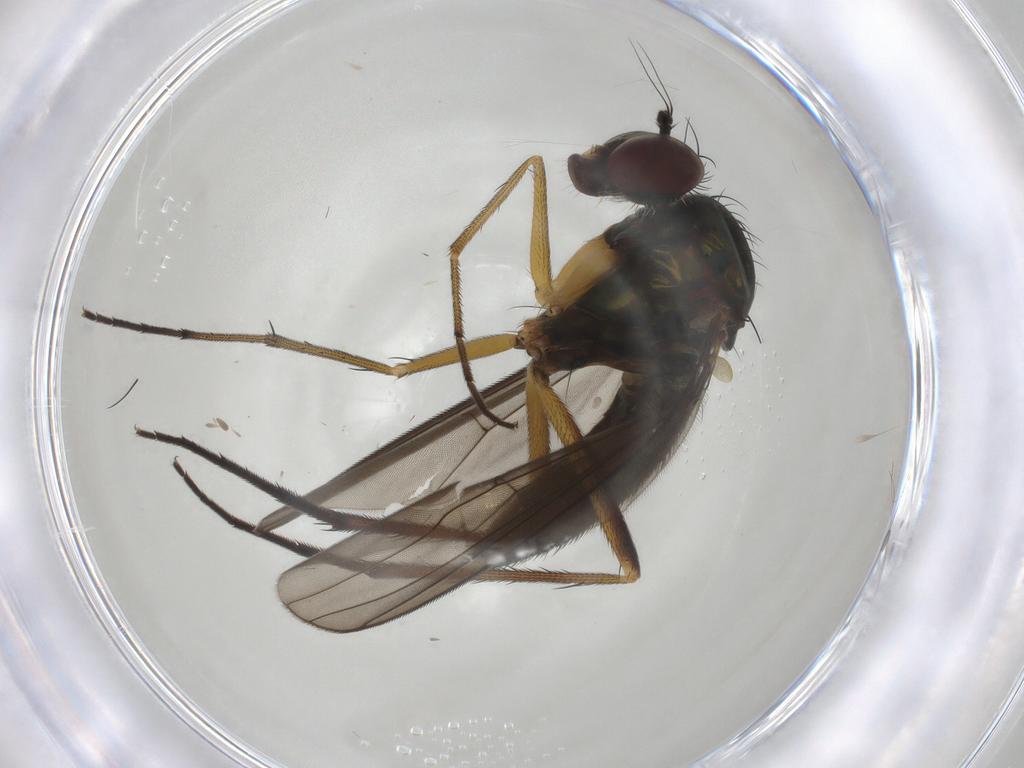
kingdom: Animalia
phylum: Arthropoda
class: Insecta
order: Diptera
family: Dolichopodidae
